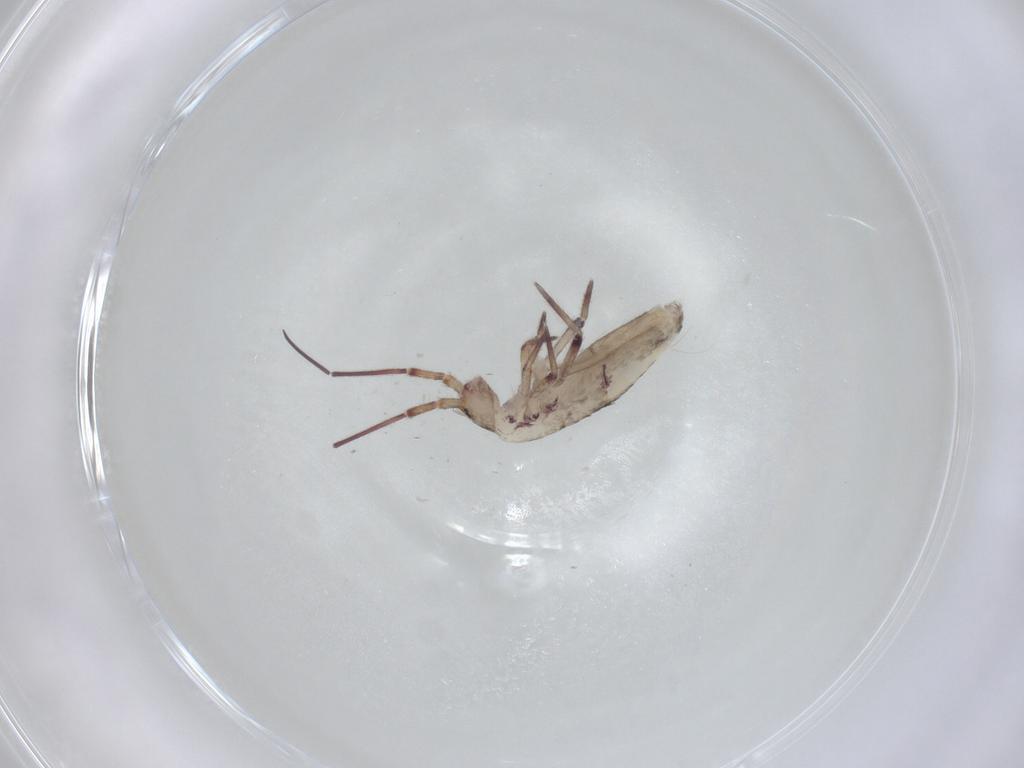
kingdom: Animalia
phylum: Arthropoda
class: Collembola
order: Entomobryomorpha
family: Entomobryidae
